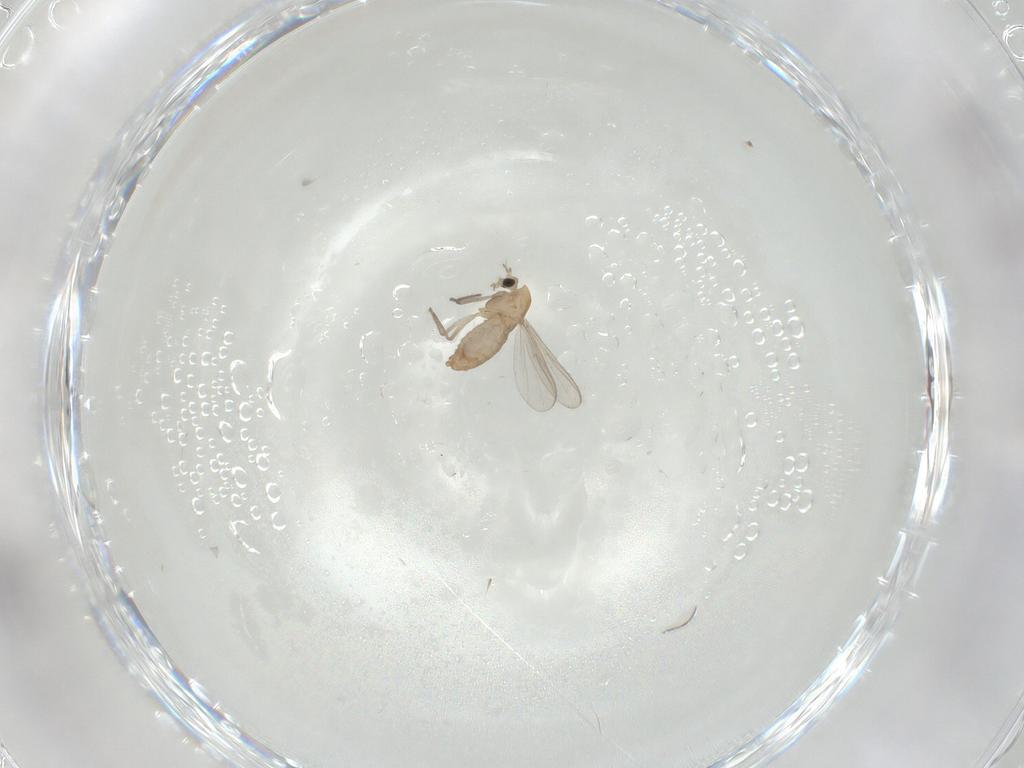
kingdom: Animalia
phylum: Arthropoda
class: Insecta
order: Diptera
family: Chironomidae
